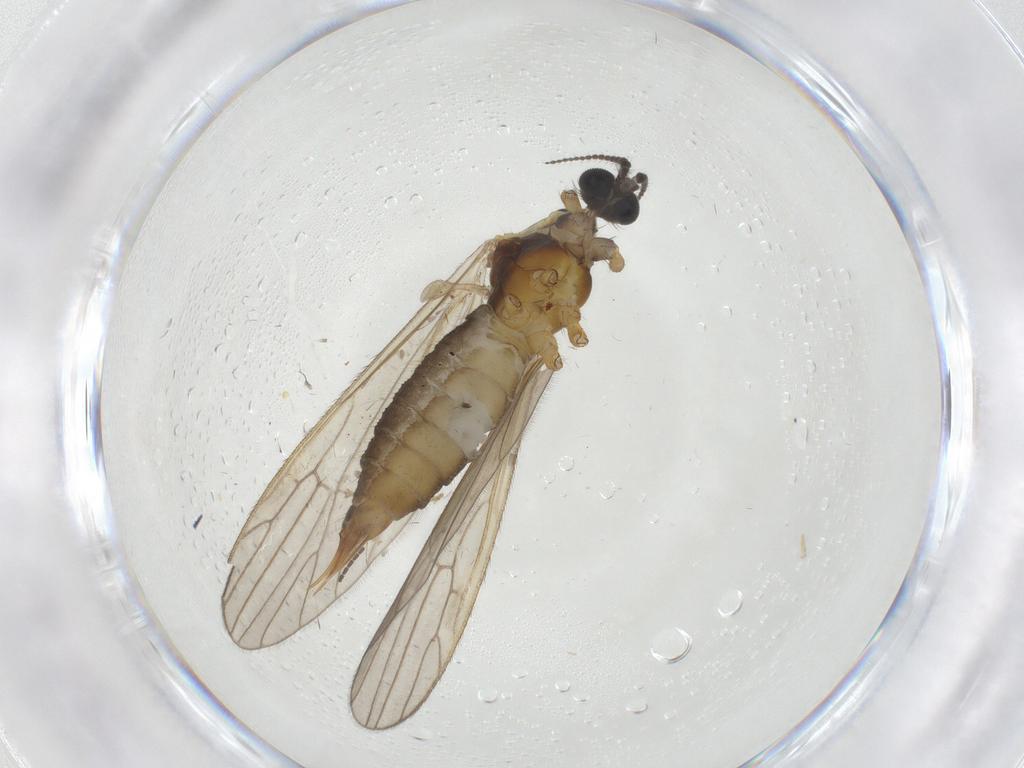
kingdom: Animalia
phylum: Arthropoda
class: Insecta
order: Diptera
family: Agromyzidae
